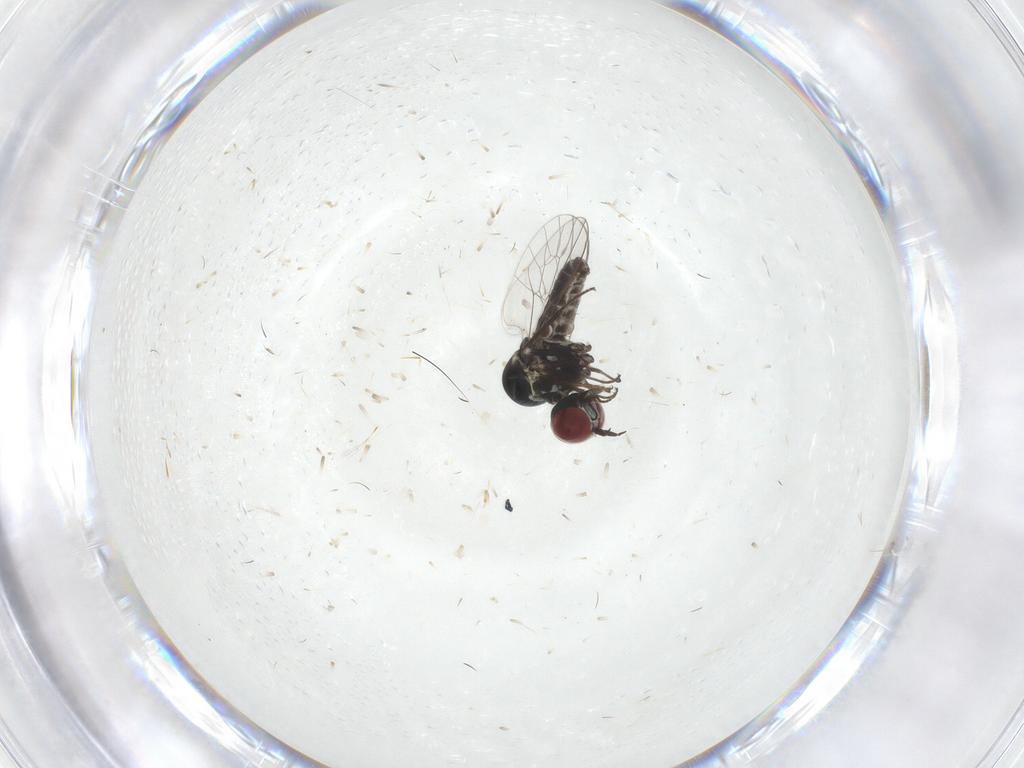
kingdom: Animalia
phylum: Arthropoda
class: Insecta
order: Diptera
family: Mythicomyiidae
